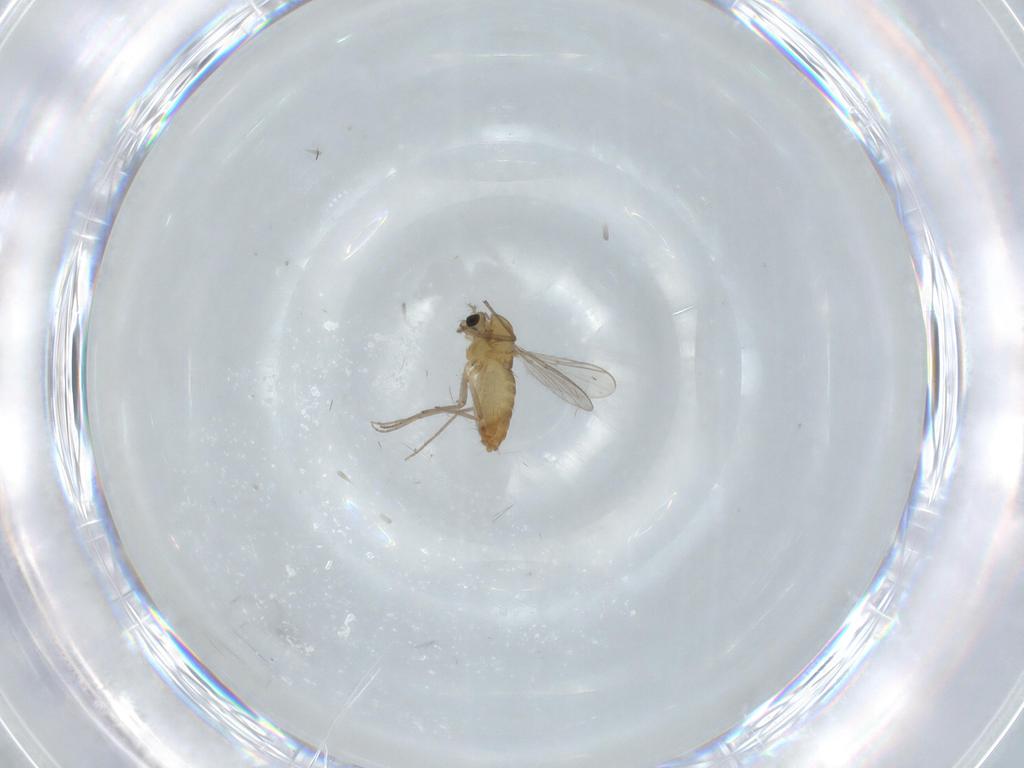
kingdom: Animalia
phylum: Arthropoda
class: Insecta
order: Diptera
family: Chironomidae
